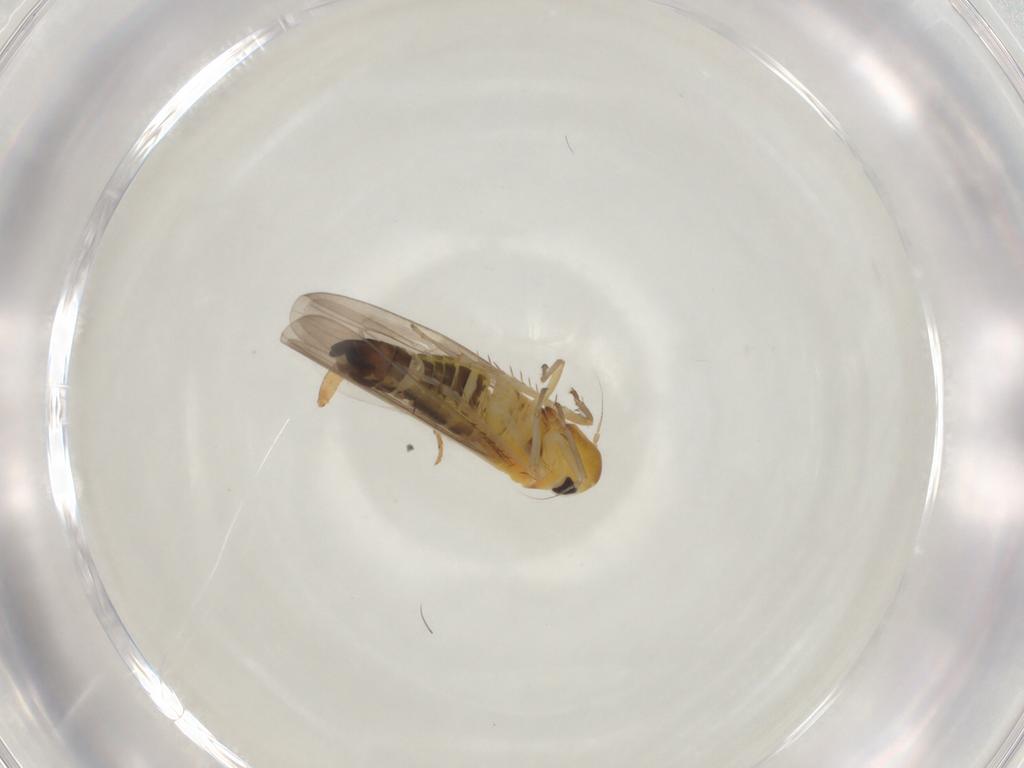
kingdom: Animalia
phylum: Arthropoda
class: Insecta
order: Hemiptera
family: Cicadellidae
